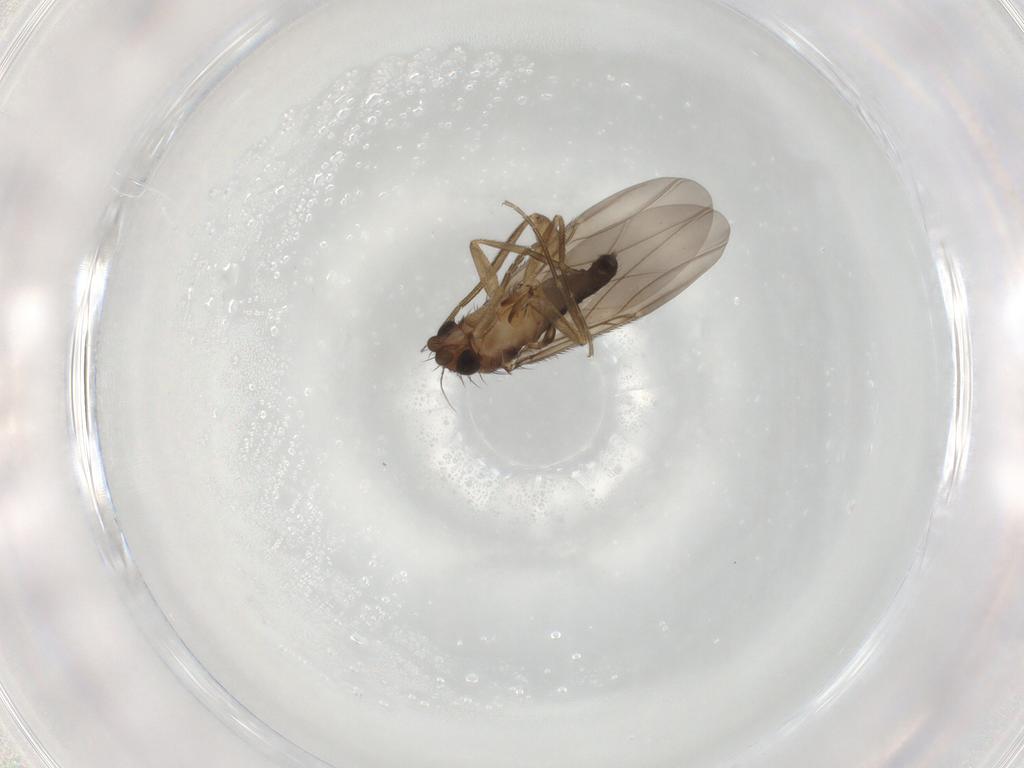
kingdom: Animalia
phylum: Arthropoda
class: Insecta
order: Diptera
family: Phoridae
